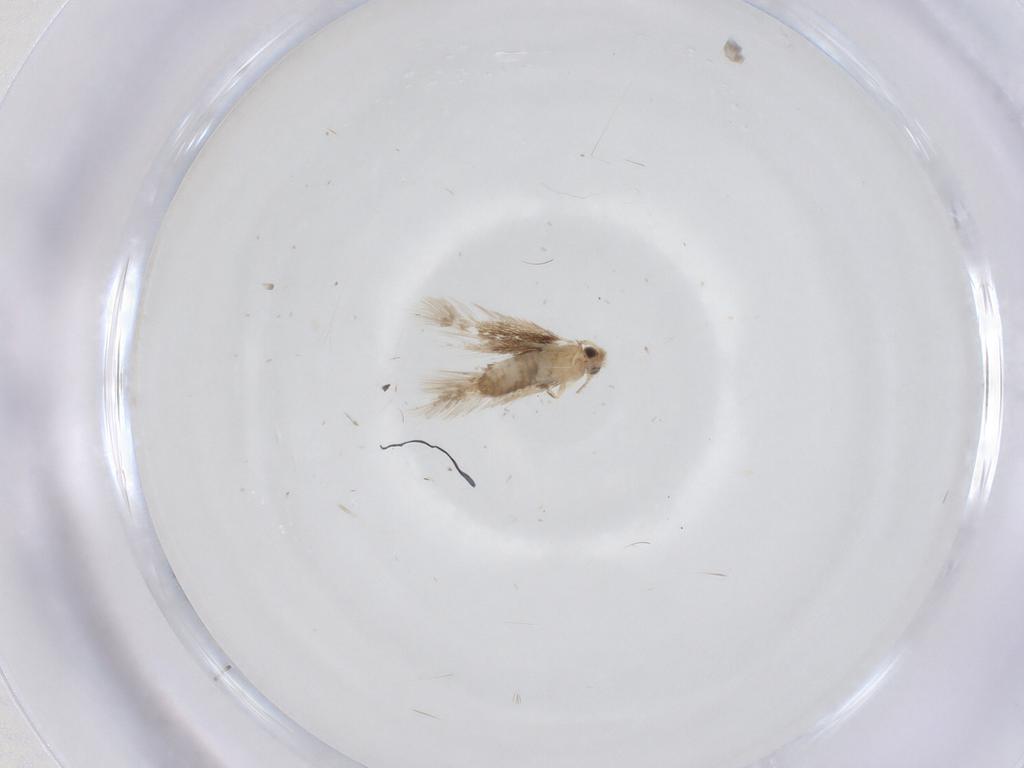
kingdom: Animalia
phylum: Arthropoda
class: Insecta
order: Lepidoptera
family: Nepticulidae
